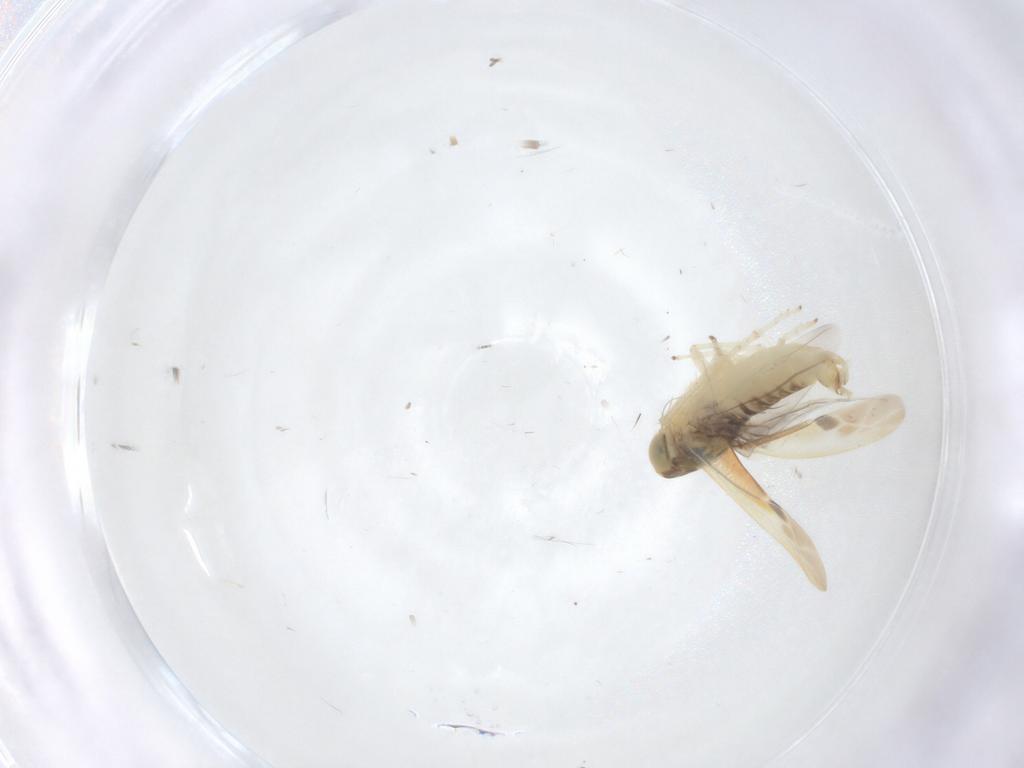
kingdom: Animalia
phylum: Arthropoda
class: Insecta
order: Hemiptera
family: Cicadellidae
